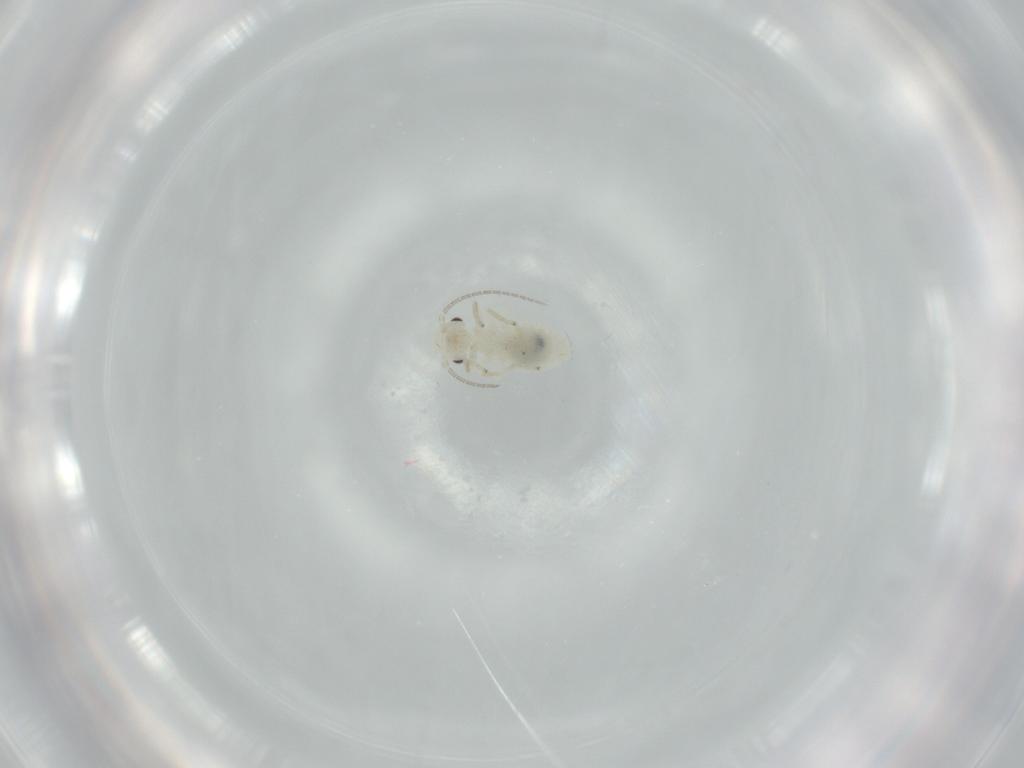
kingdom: Animalia
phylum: Arthropoda
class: Insecta
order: Psocodea
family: Caeciliusidae
